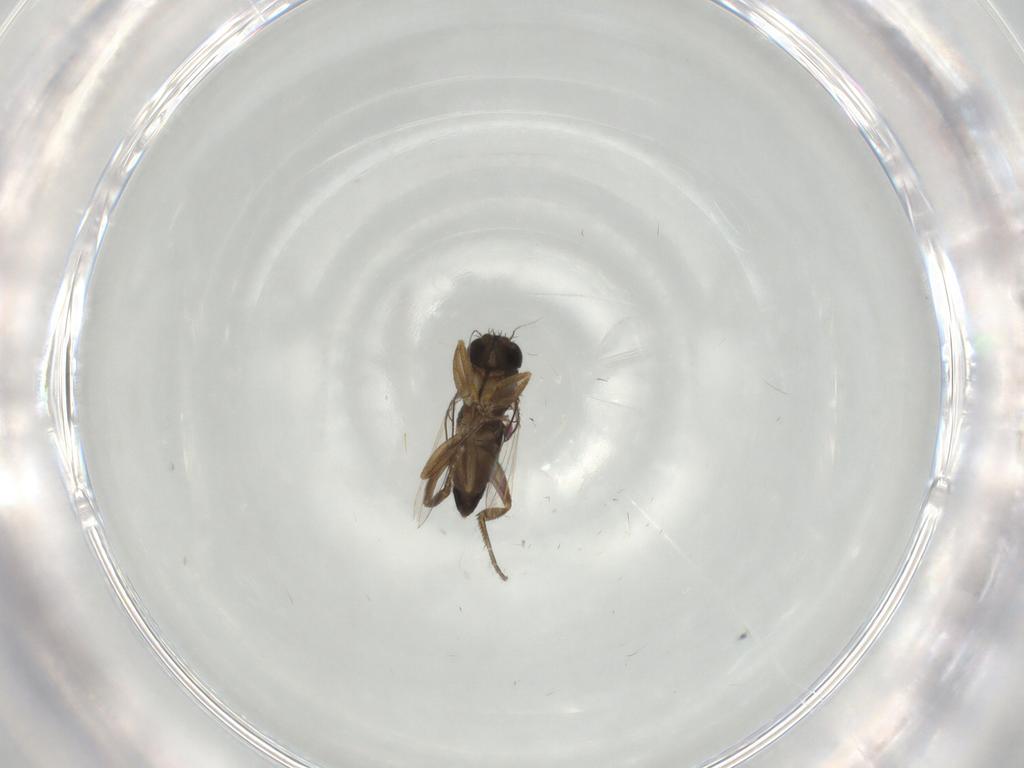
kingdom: Animalia
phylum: Arthropoda
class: Insecta
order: Diptera
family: Phoridae
